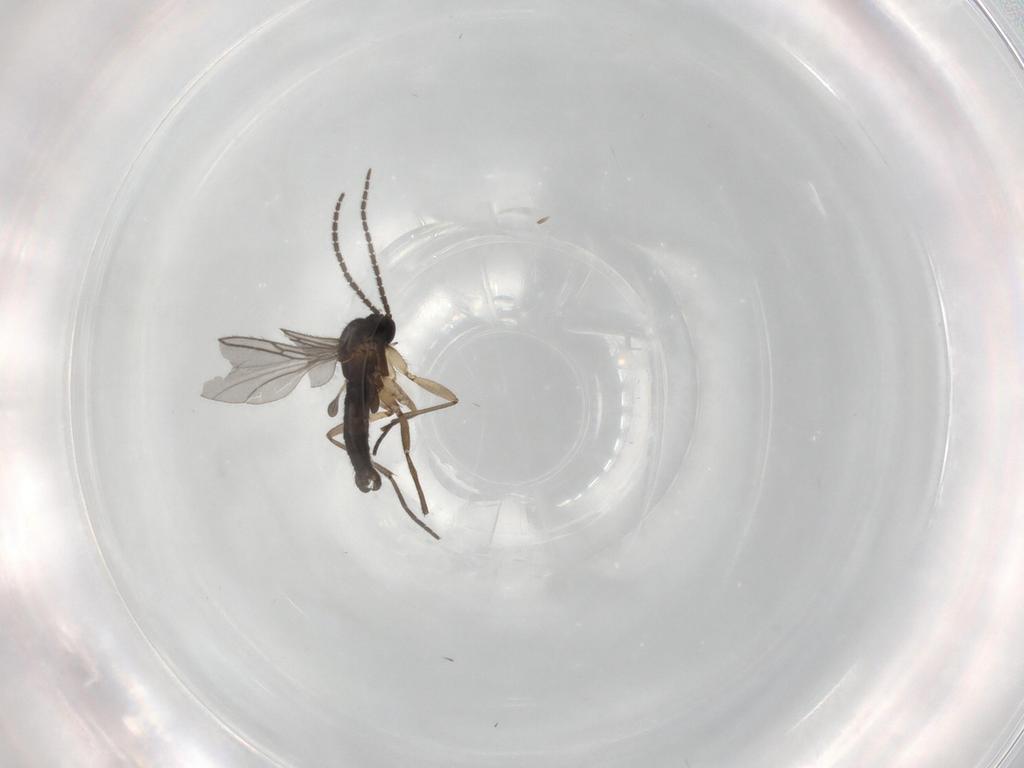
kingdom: Animalia
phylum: Arthropoda
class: Insecta
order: Diptera
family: Sciaridae
